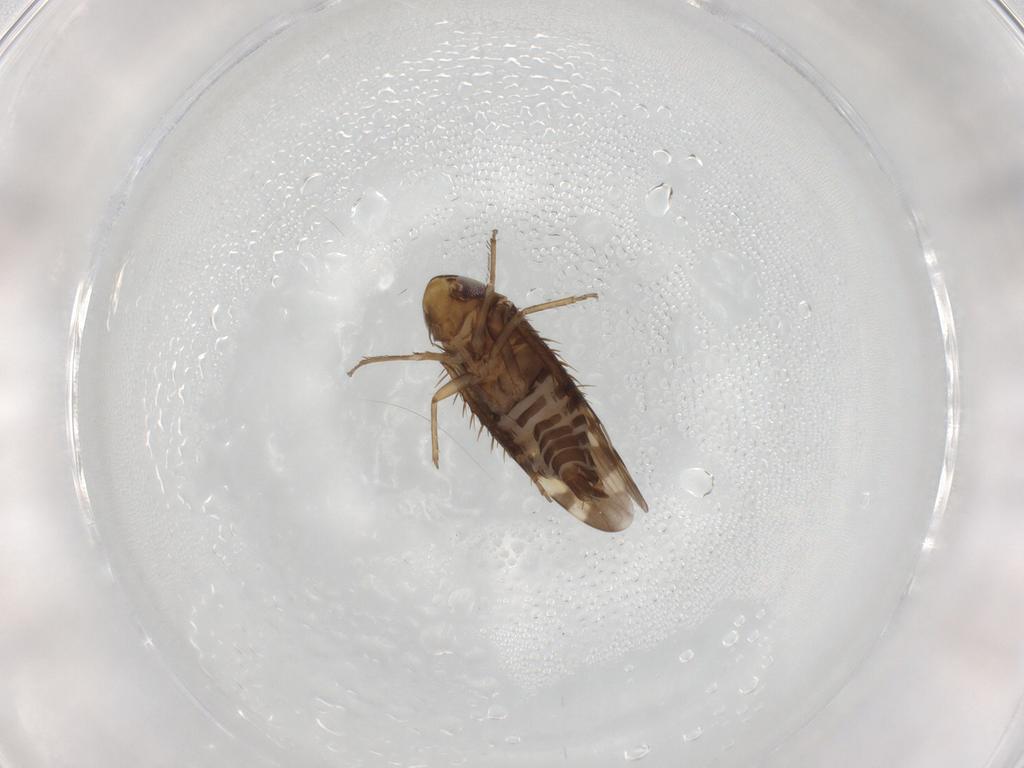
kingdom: Animalia
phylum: Arthropoda
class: Insecta
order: Hemiptera
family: Cicadellidae
